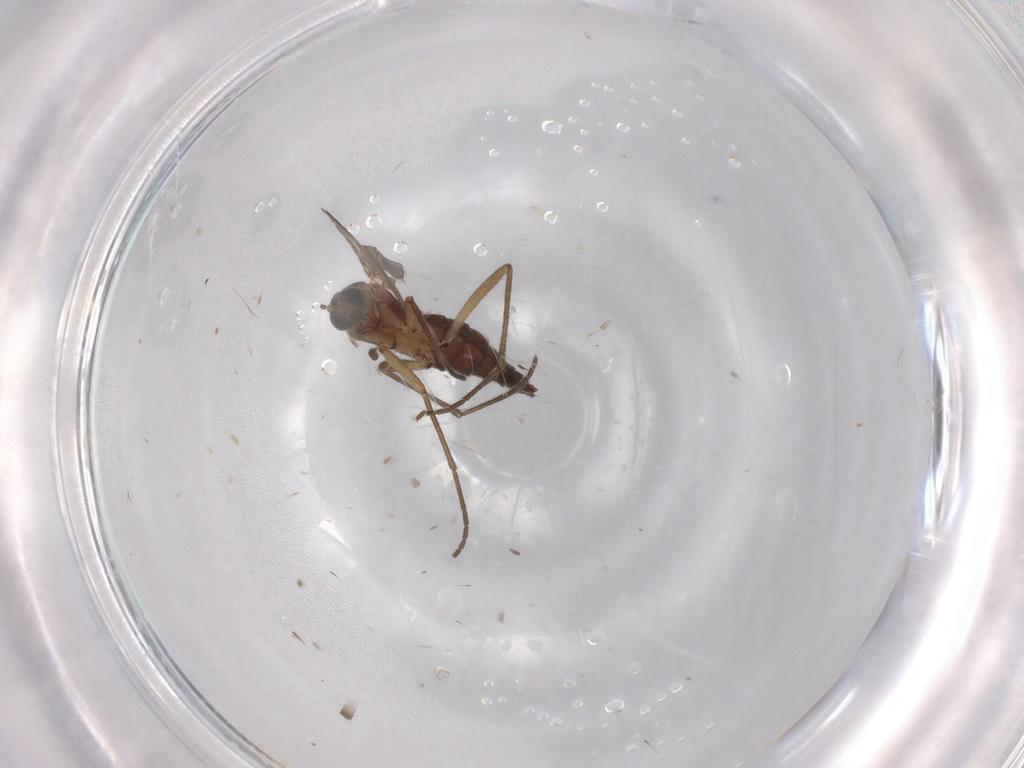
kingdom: Animalia
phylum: Arthropoda
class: Insecta
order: Diptera
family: Sciaridae
